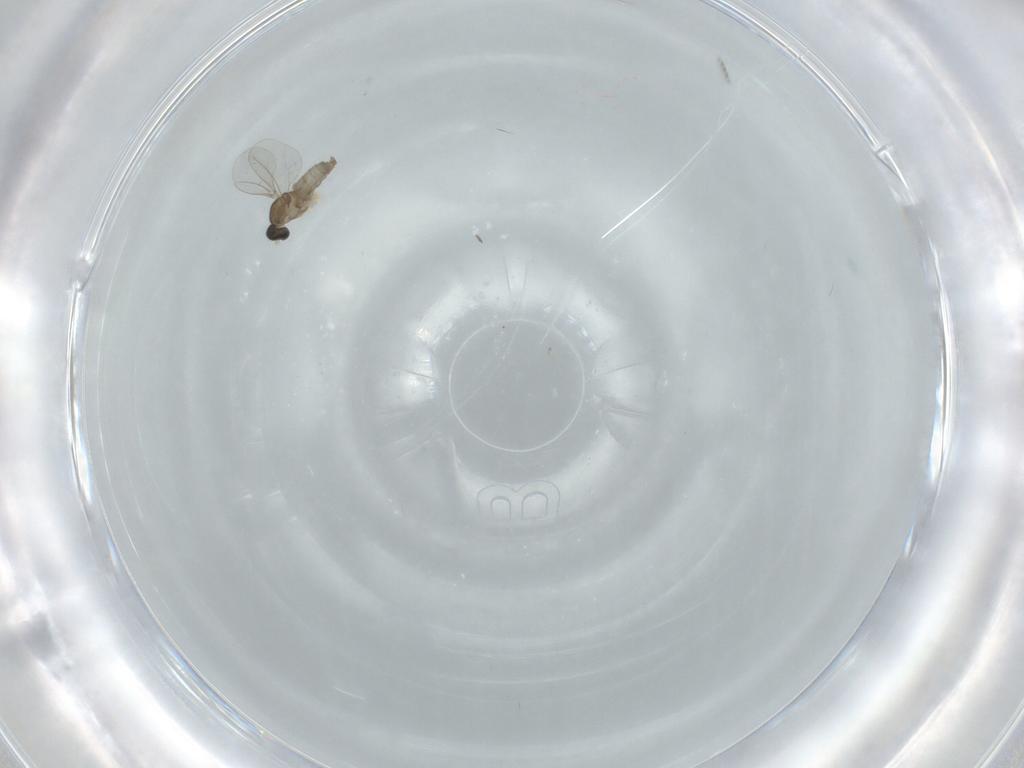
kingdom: Animalia
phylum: Arthropoda
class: Insecta
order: Diptera
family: Cecidomyiidae
